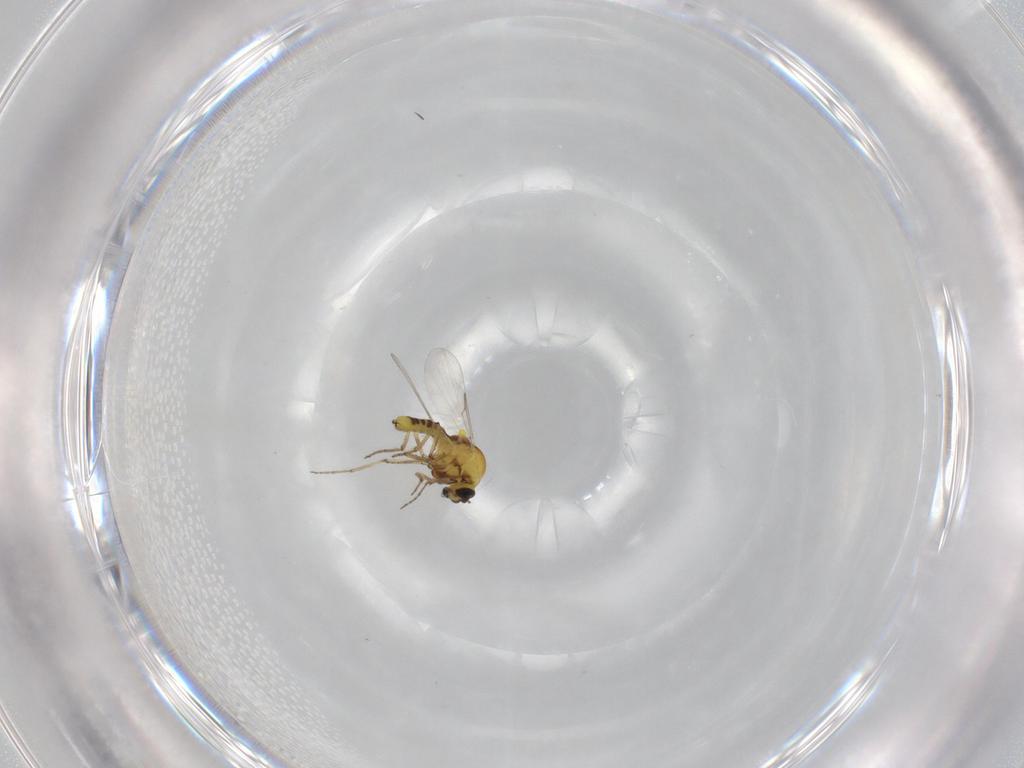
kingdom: Animalia
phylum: Arthropoda
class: Insecta
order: Diptera
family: Ceratopogonidae
